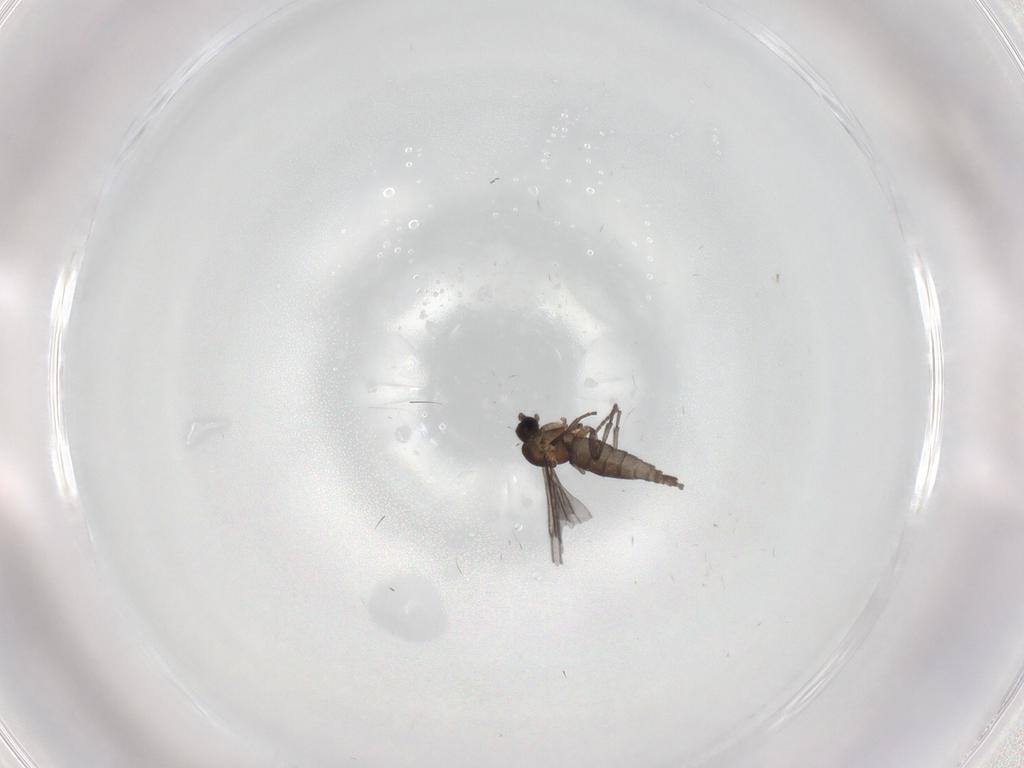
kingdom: Animalia
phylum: Arthropoda
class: Insecta
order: Diptera
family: Sciaridae
